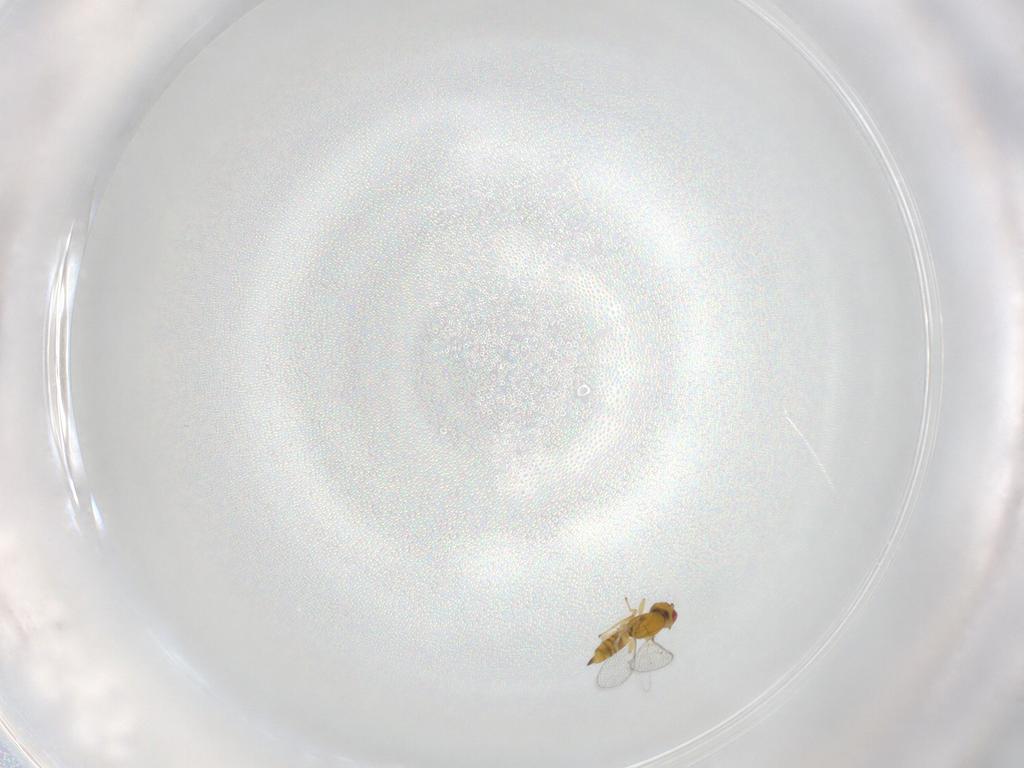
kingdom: Animalia
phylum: Arthropoda
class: Insecta
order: Hymenoptera
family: Eulophidae
